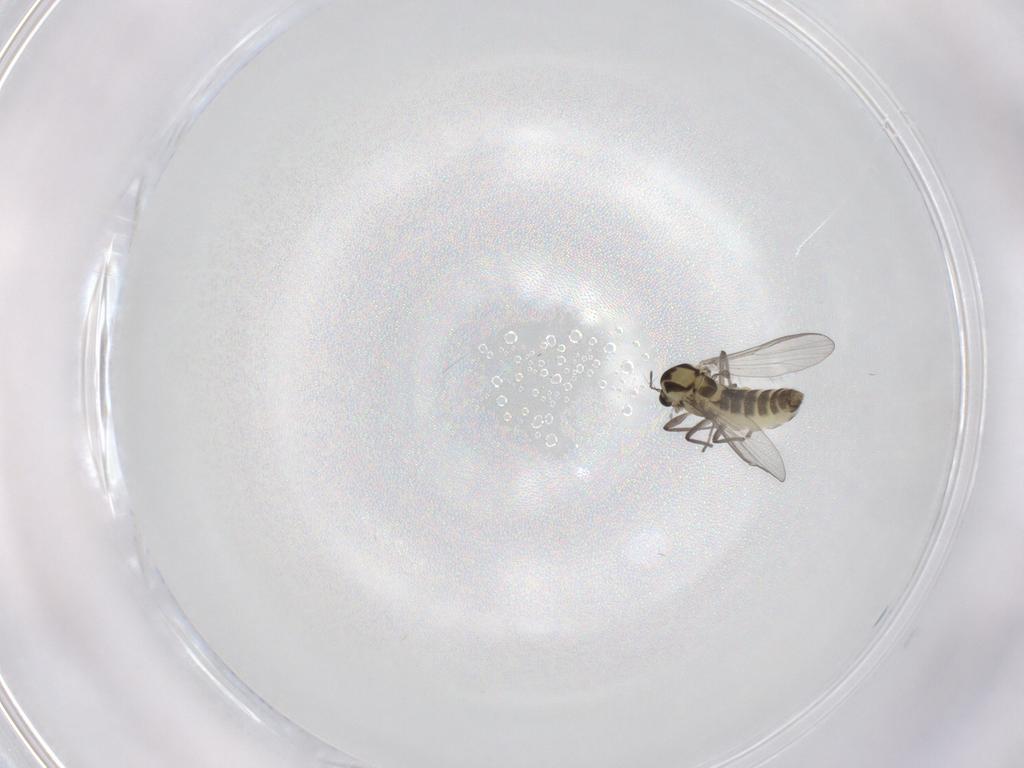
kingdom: Animalia
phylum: Arthropoda
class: Insecta
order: Diptera
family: Chironomidae
